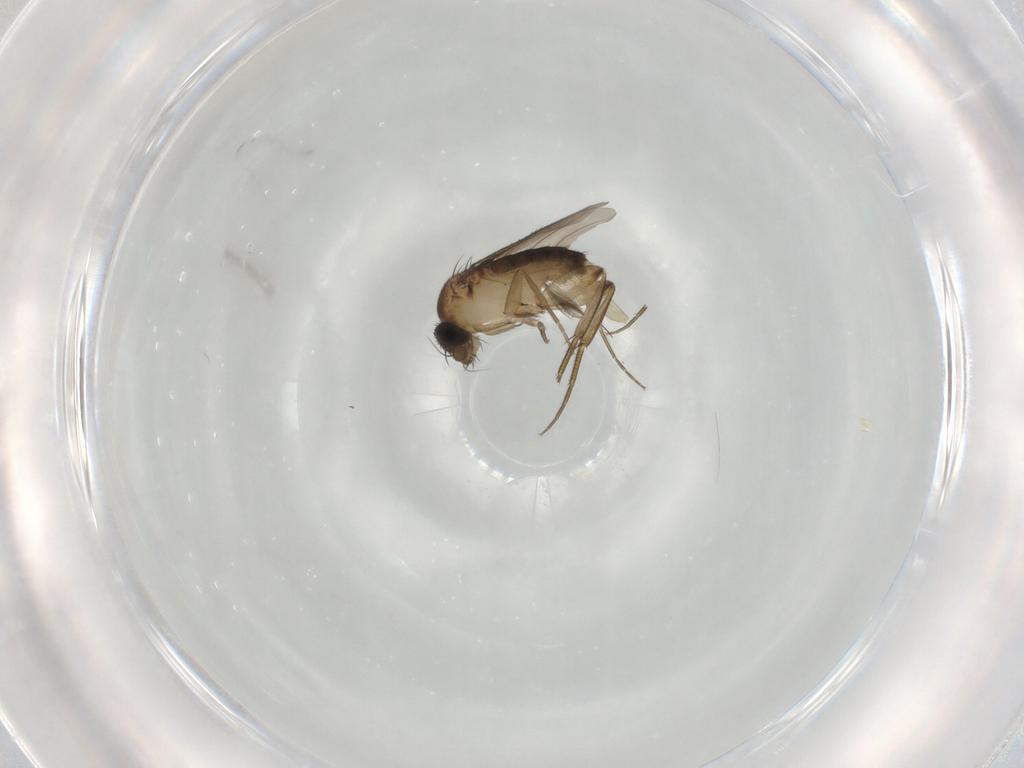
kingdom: Animalia
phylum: Arthropoda
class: Insecta
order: Diptera
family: Phoridae
